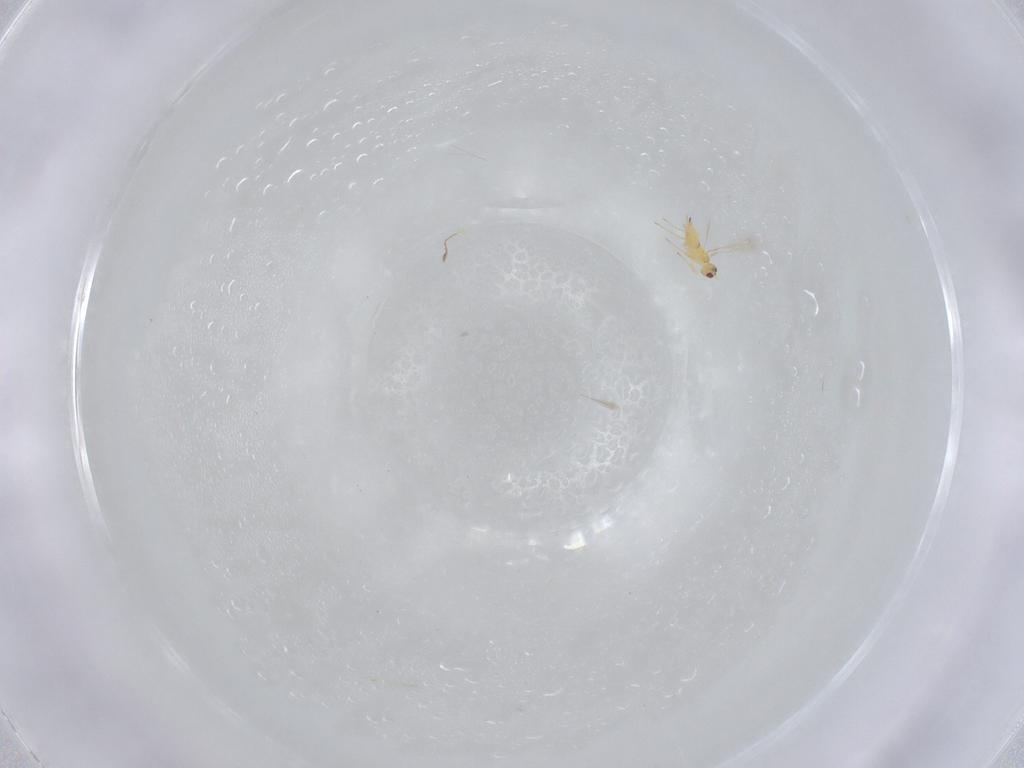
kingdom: Animalia
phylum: Arthropoda
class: Insecta
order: Hymenoptera
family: Mymaridae
